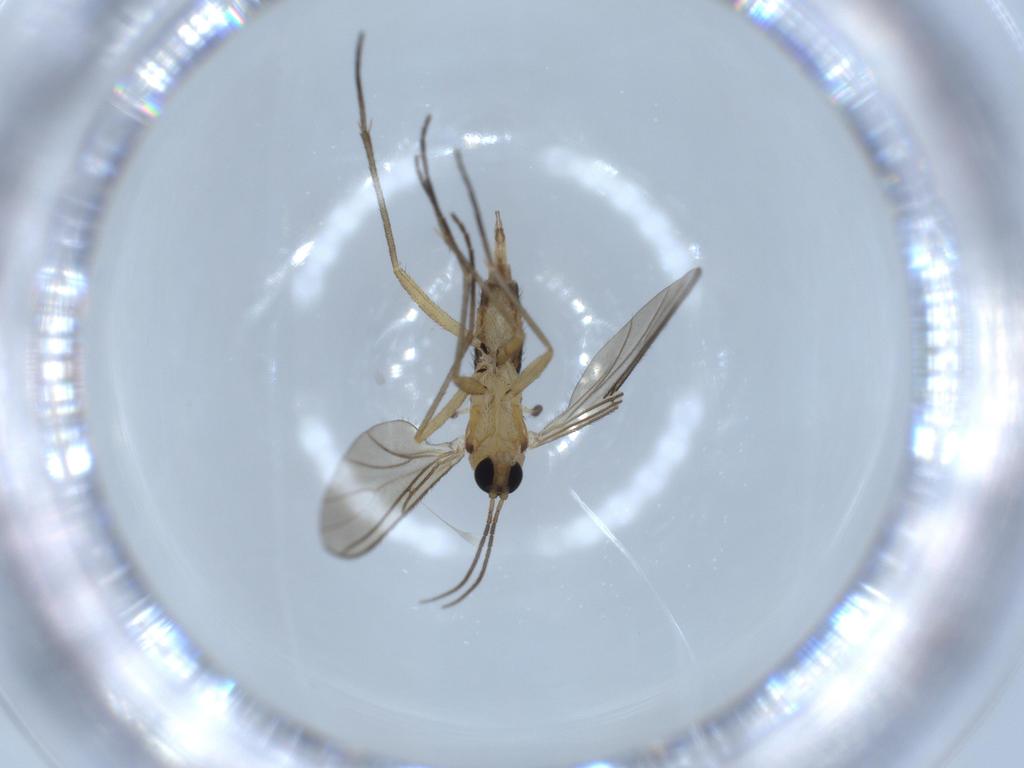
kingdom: Animalia
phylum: Arthropoda
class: Insecta
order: Diptera
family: Sciaridae
